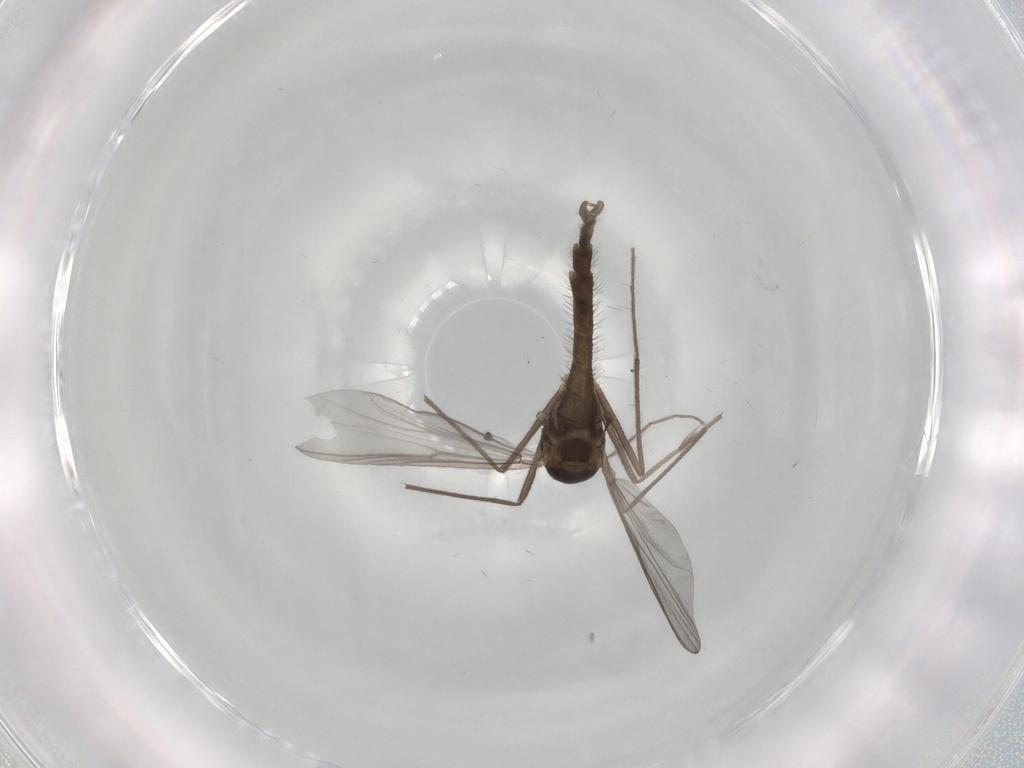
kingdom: Animalia
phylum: Arthropoda
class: Insecta
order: Diptera
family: Chironomidae
